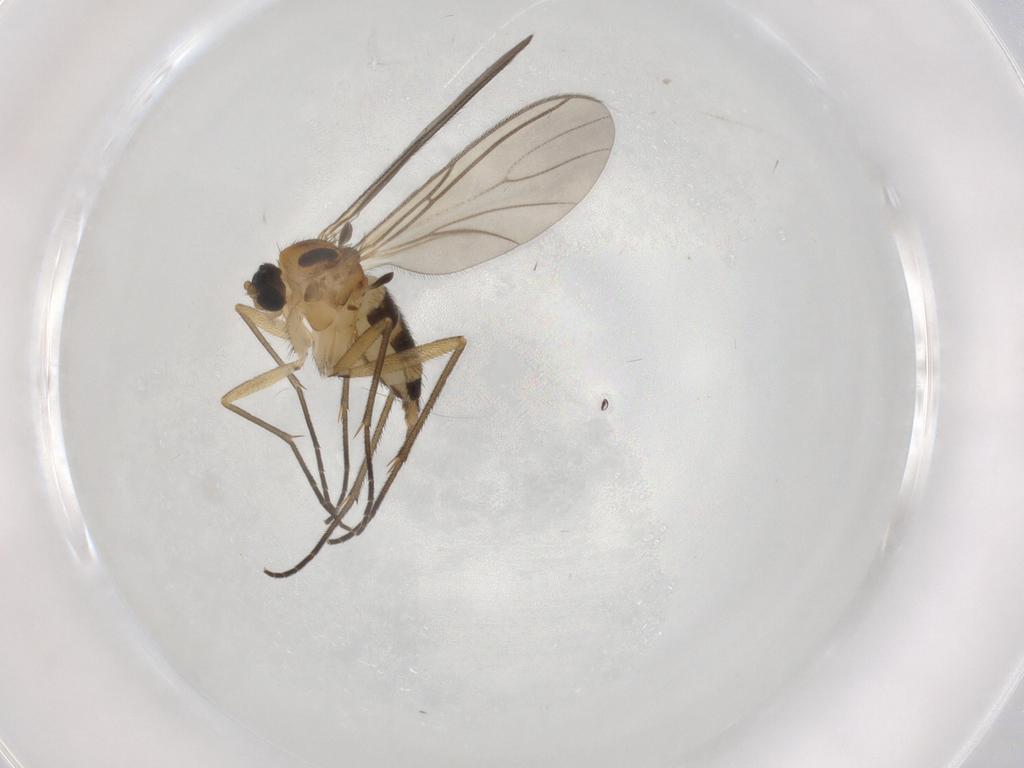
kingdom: Animalia
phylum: Arthropoda
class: Insecta
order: Diptera
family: Sciaridae
